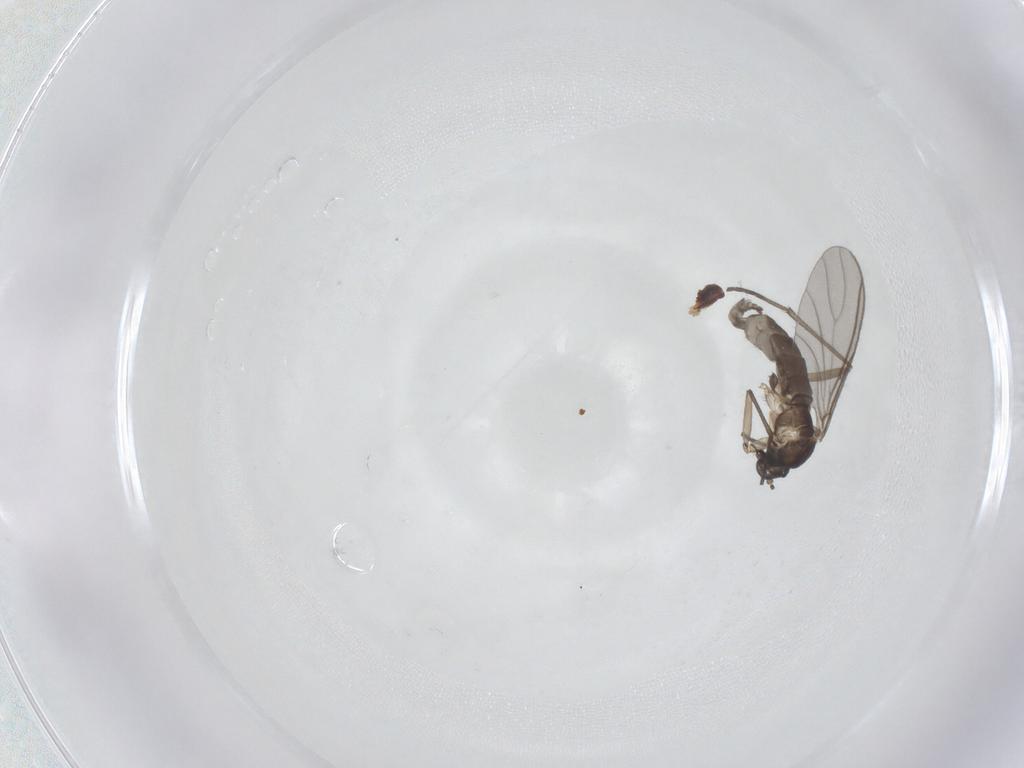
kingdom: Animalia
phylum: Arthropoda
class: Insecta
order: Diptera
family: Sciaridae
